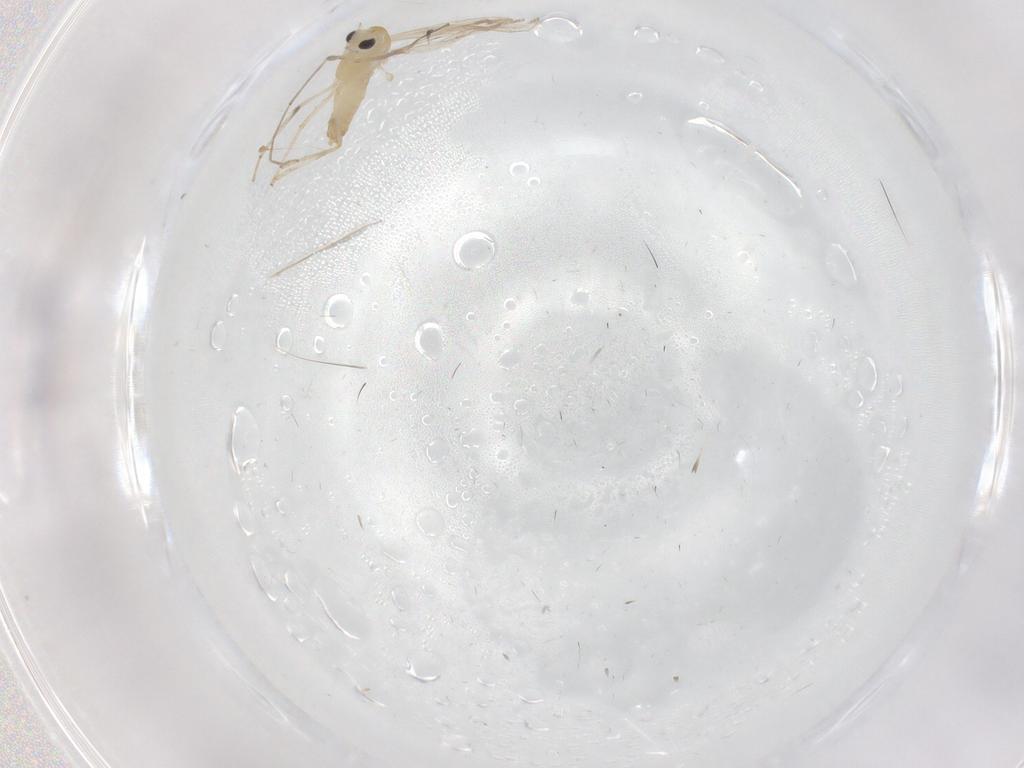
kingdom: Animalia
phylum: Arthropoda
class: Insecta
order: Diptera
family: Chironomidae
